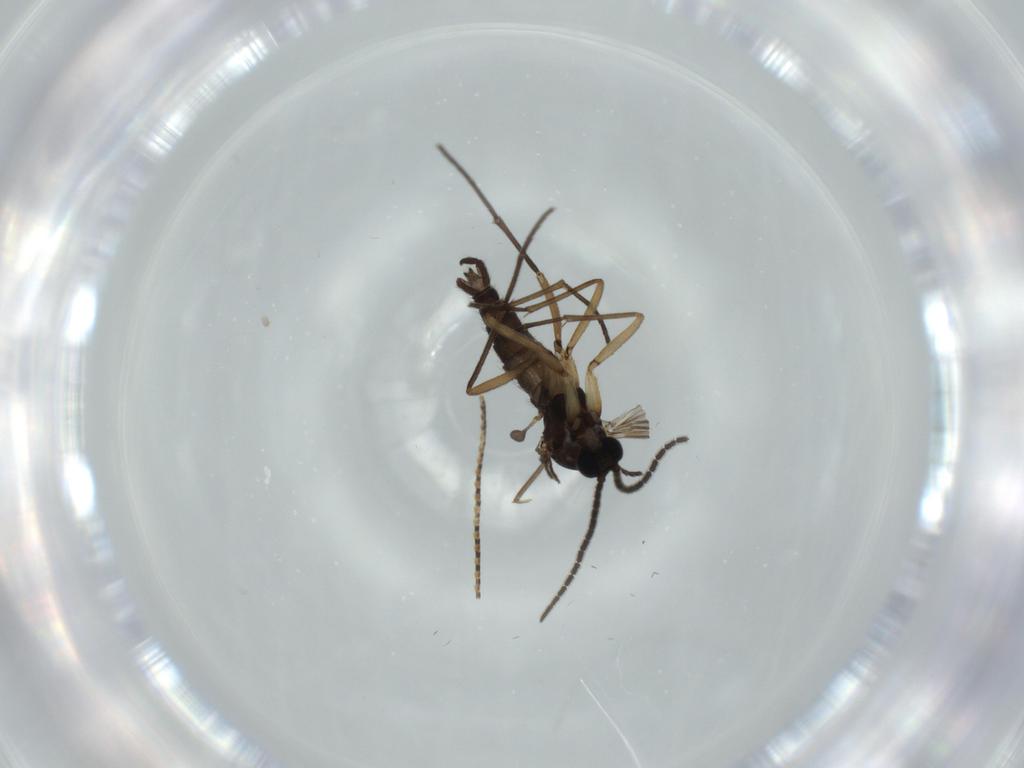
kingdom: Animalia
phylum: Arthropoda
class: Insecta
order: Diptera
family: Sciaridae
